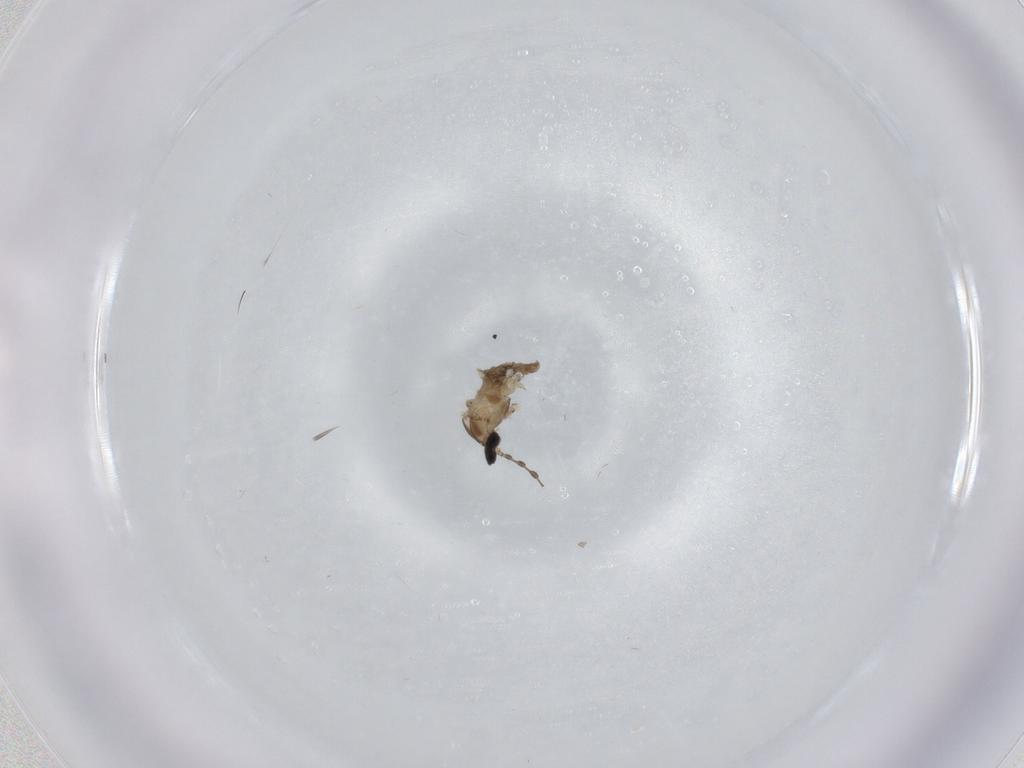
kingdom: Animalia
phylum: Arthropoda
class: Insecta
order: Diptera
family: Cecidomyiidae
